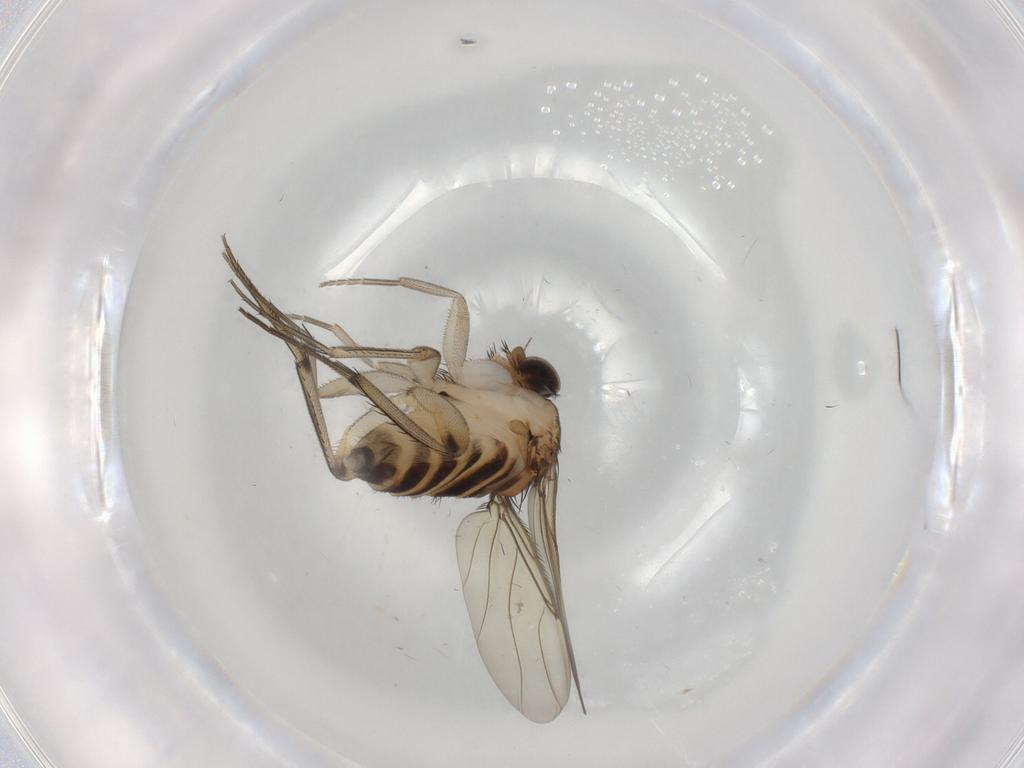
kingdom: Animalia
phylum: Arthropoda
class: Insecta
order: Diptera
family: Phoridae
